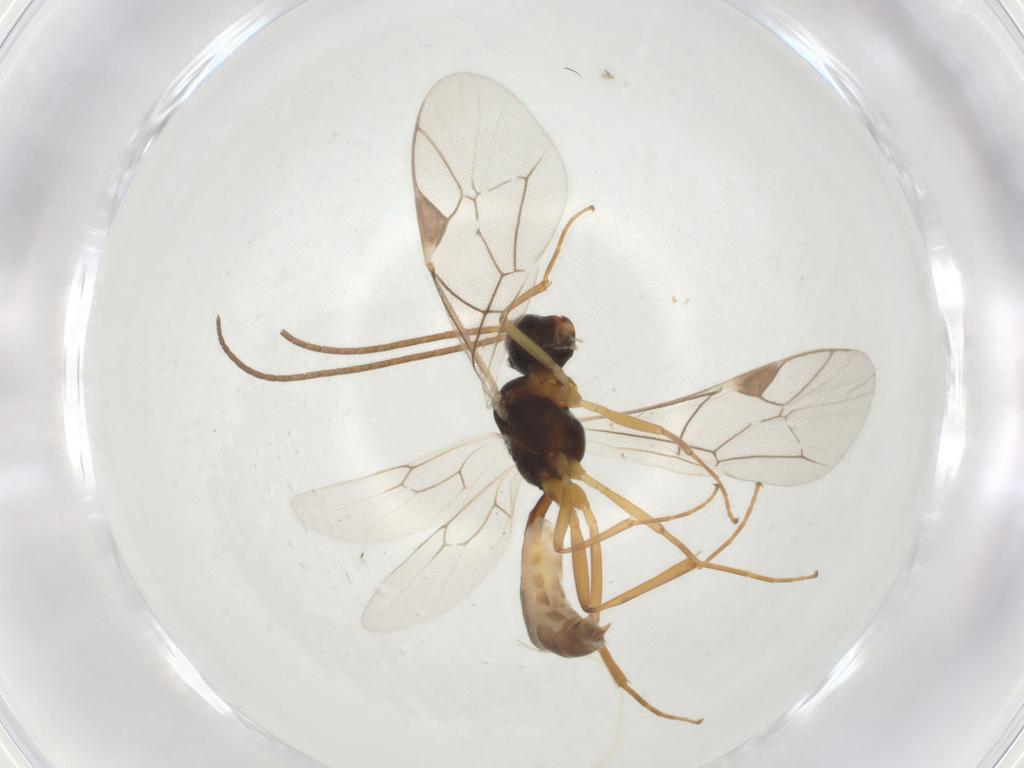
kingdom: Animalia
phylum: Arthropoda
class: Insecta
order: Hymenoptera
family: Ichneumonidae
